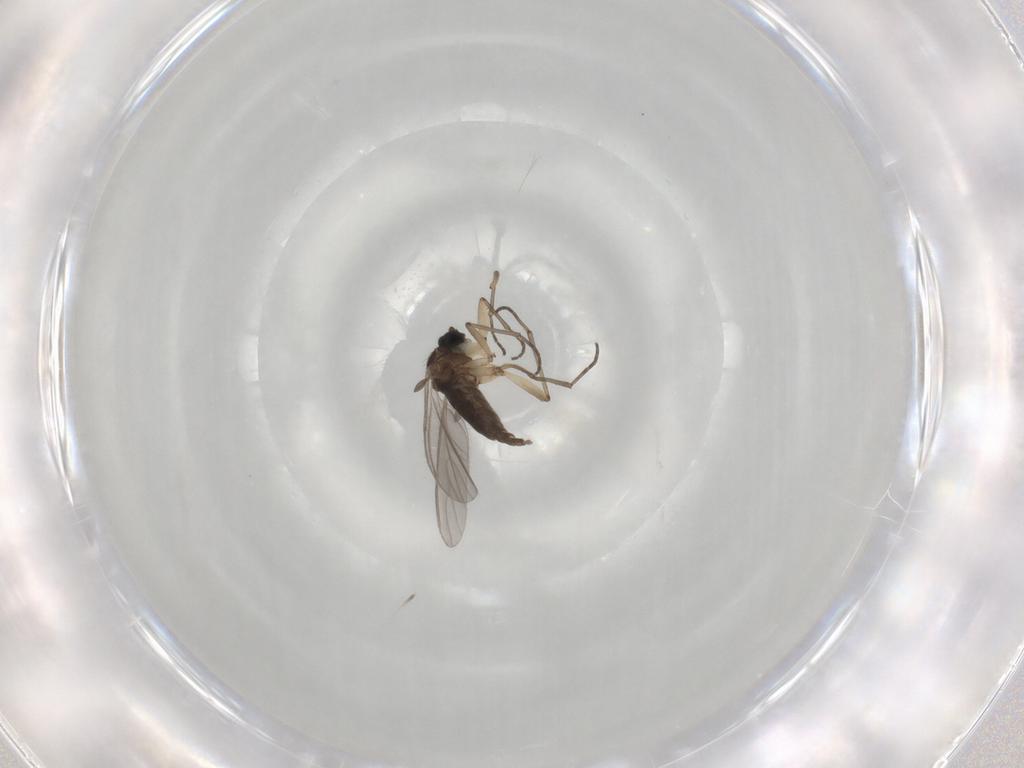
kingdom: Animalia
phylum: Arthropoda
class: Insecta
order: Diptera
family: Sciaridae
